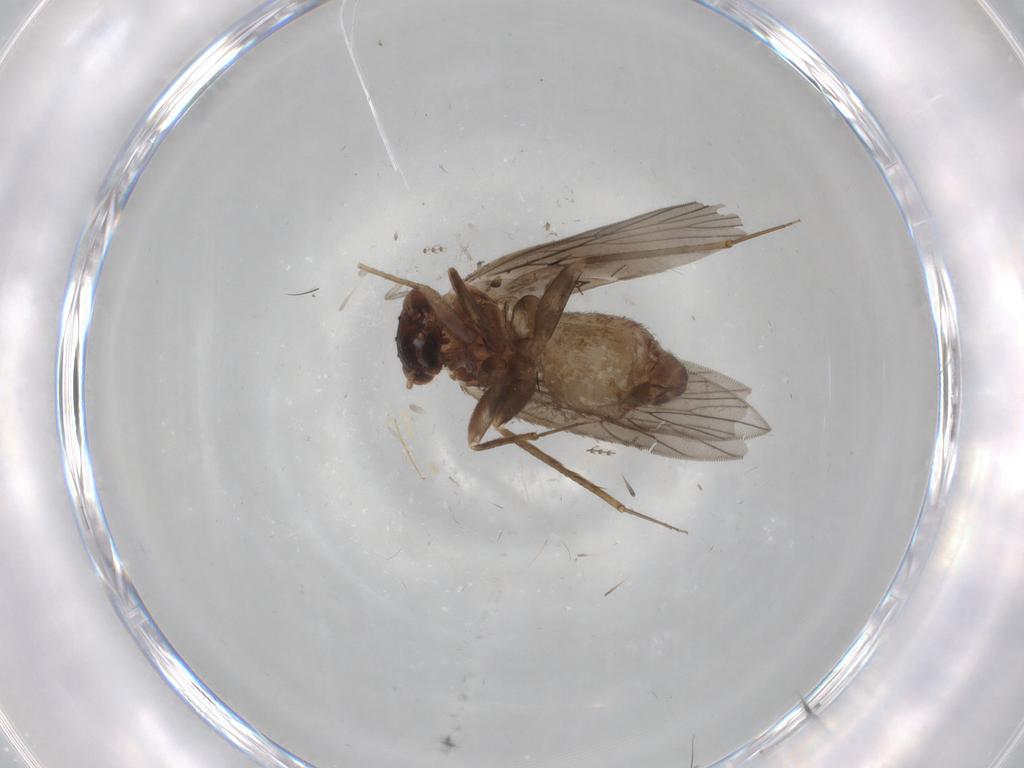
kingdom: Animalia
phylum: Arthropoda
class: Insecta
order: Psocodea
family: Lepidopsocidae
